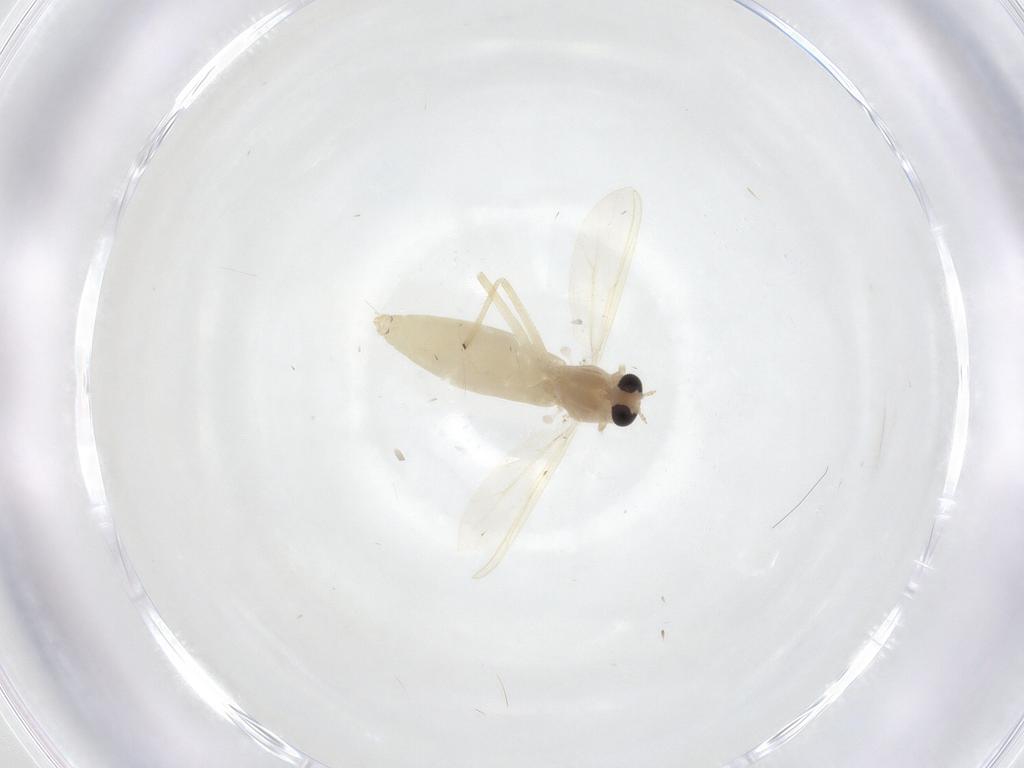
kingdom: Animalia
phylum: Arthropoda
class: Insecta
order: Diptera
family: Chironomidae
